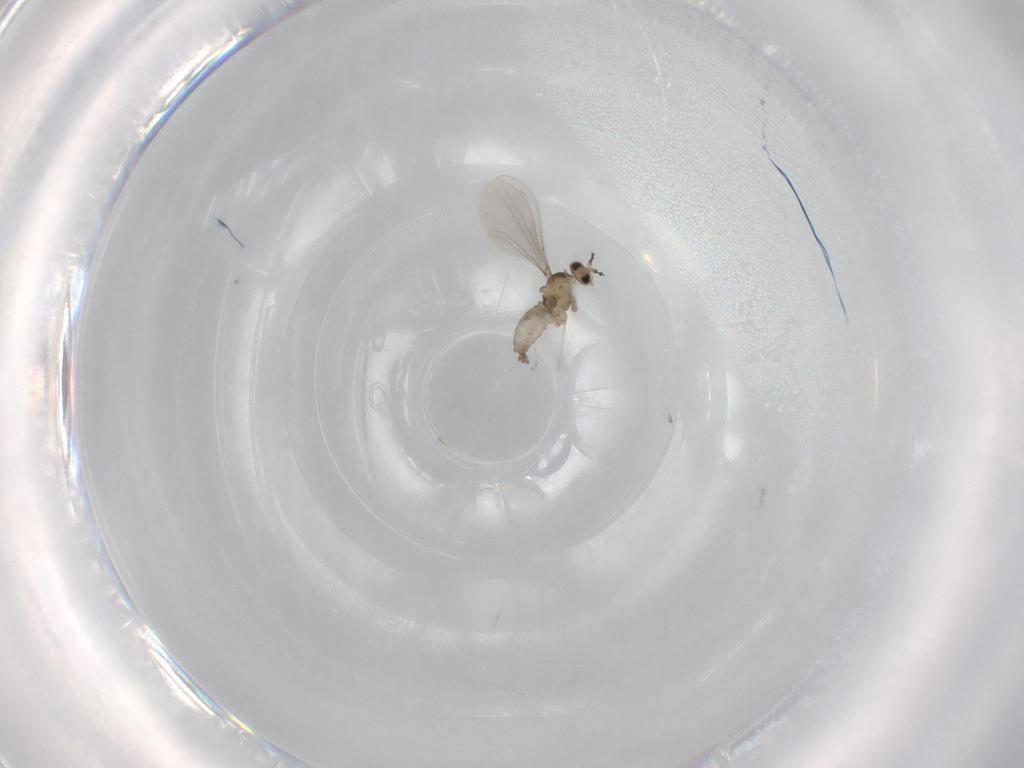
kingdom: Animalia
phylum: Arthropoda
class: Insecta
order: Diptera
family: Cecidomyiidae
